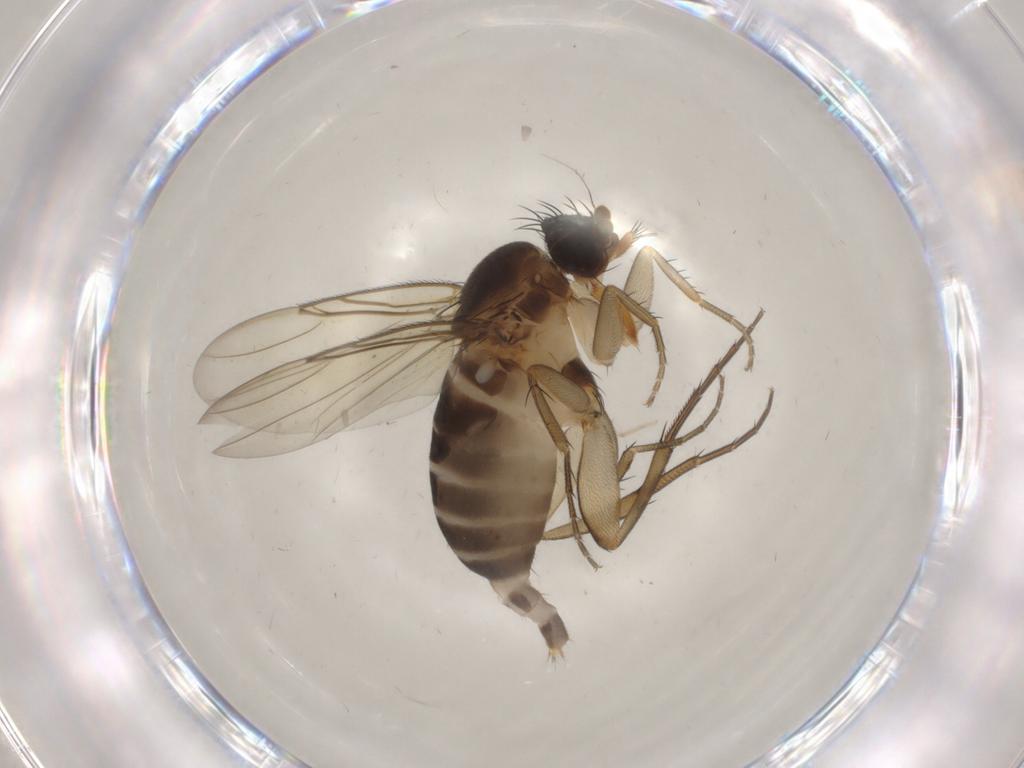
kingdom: Animalia
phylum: Arthropoda
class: Insecta
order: Diptera
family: Phoridae
